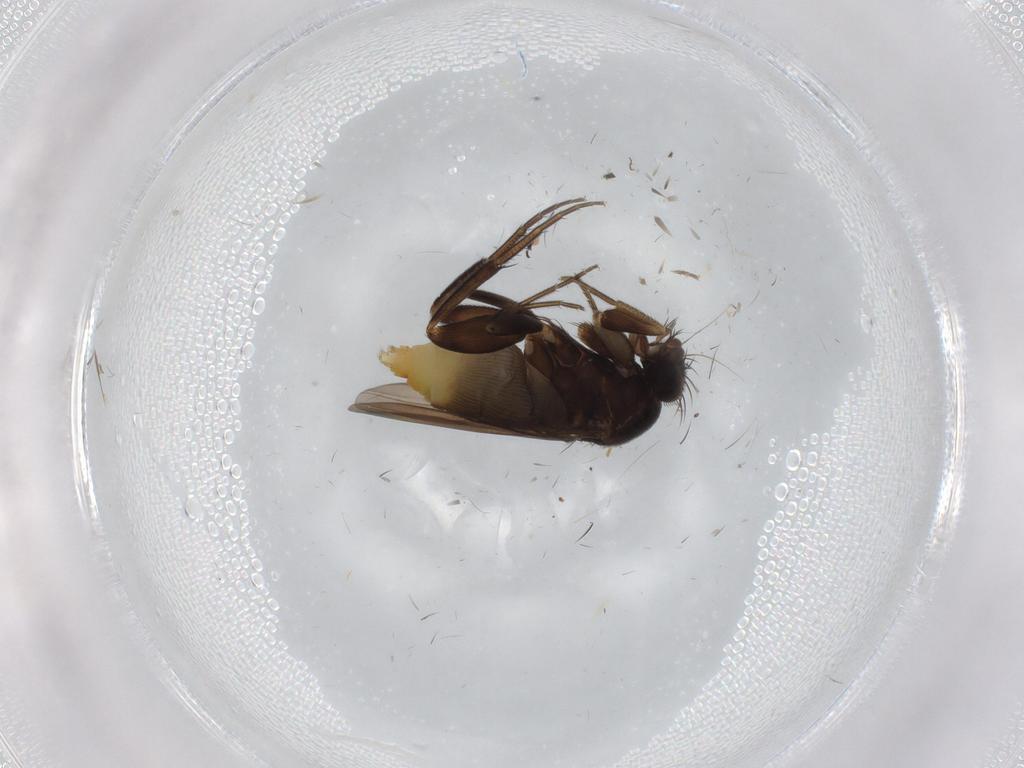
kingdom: Animalia
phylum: Arthropoda
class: Insecta
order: Diptera
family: Phoridae
